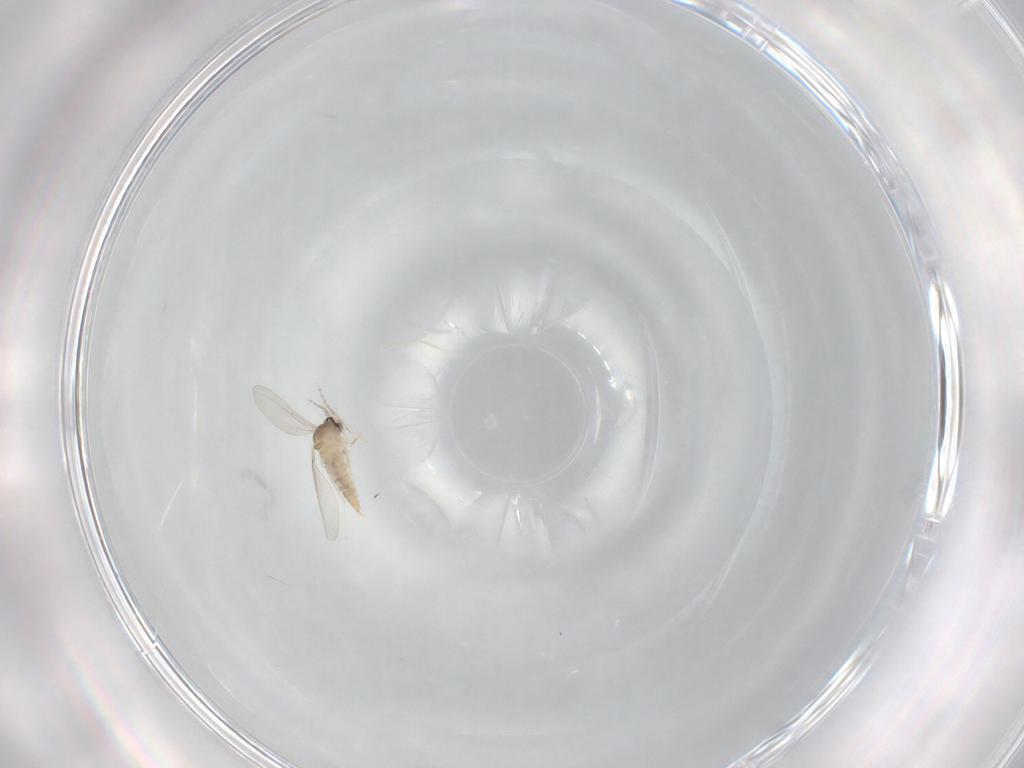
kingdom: Animalia
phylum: Arthropoda
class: Insecta
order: Diptera
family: Cecidomyiidae
